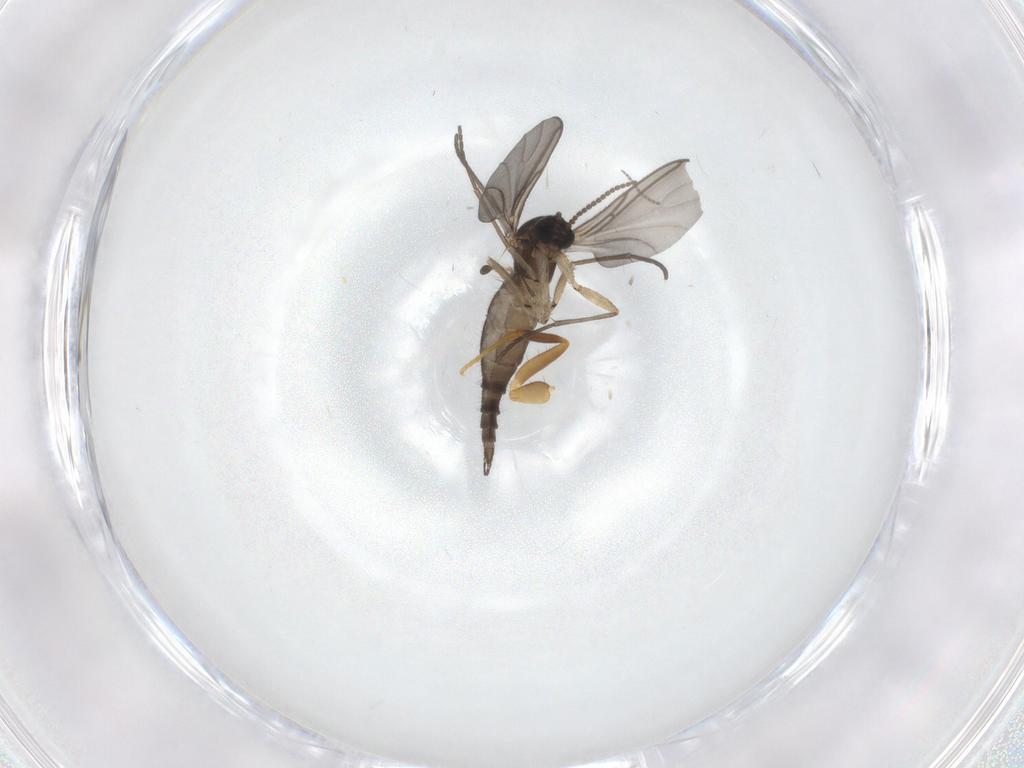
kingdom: Animalia
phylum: Arthropoda
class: Insecta
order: Diptera
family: Sciaridae
